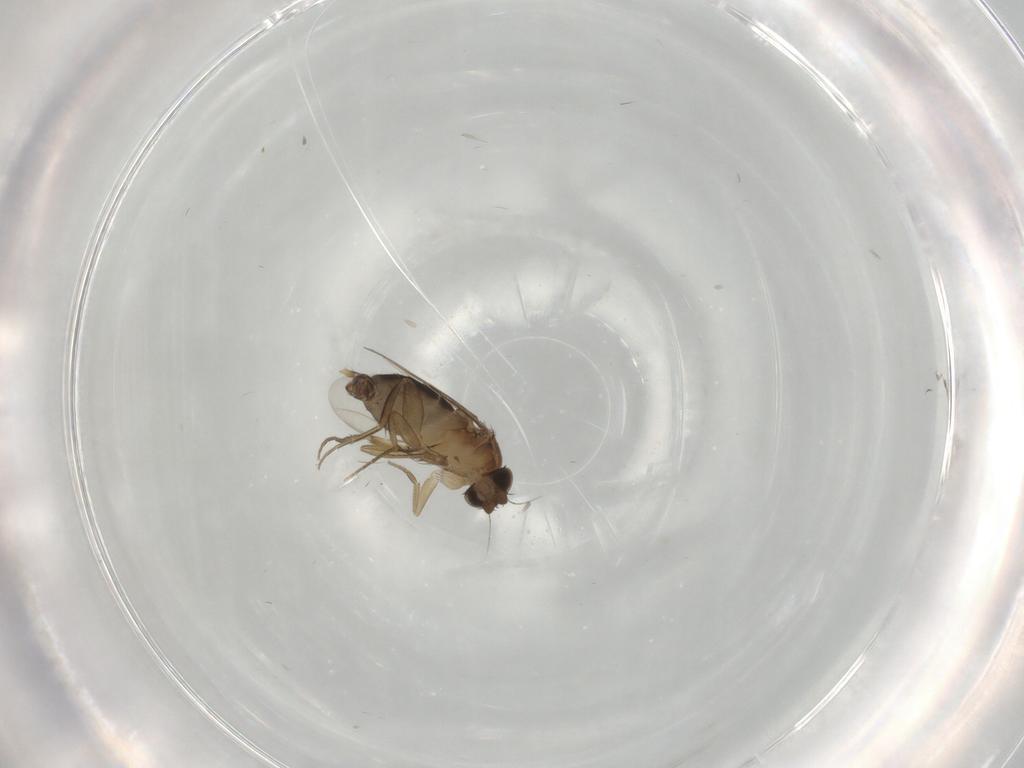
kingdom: Animalia
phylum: Arthropoda
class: Insecta
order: Diptera
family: Phoridae
